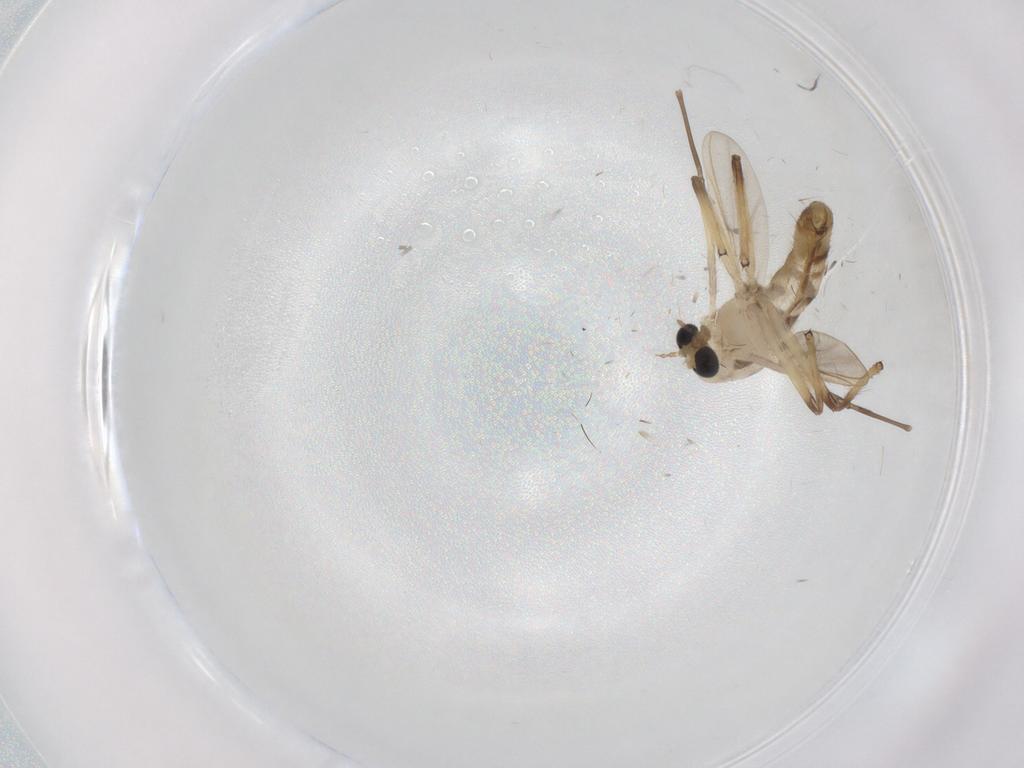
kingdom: Animalia
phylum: Arthropoda
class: Insecta
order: Diptera
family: Chironomidae
